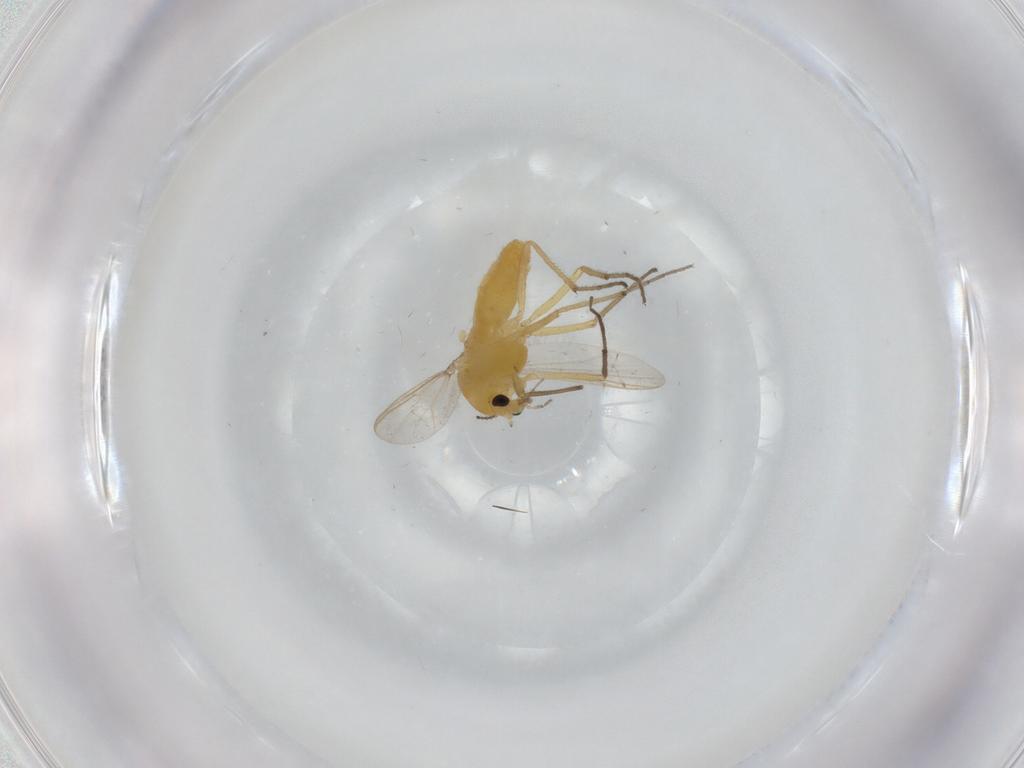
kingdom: Animalia
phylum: Arthropoda
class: Insecta
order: Diptera
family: Chironomidae
